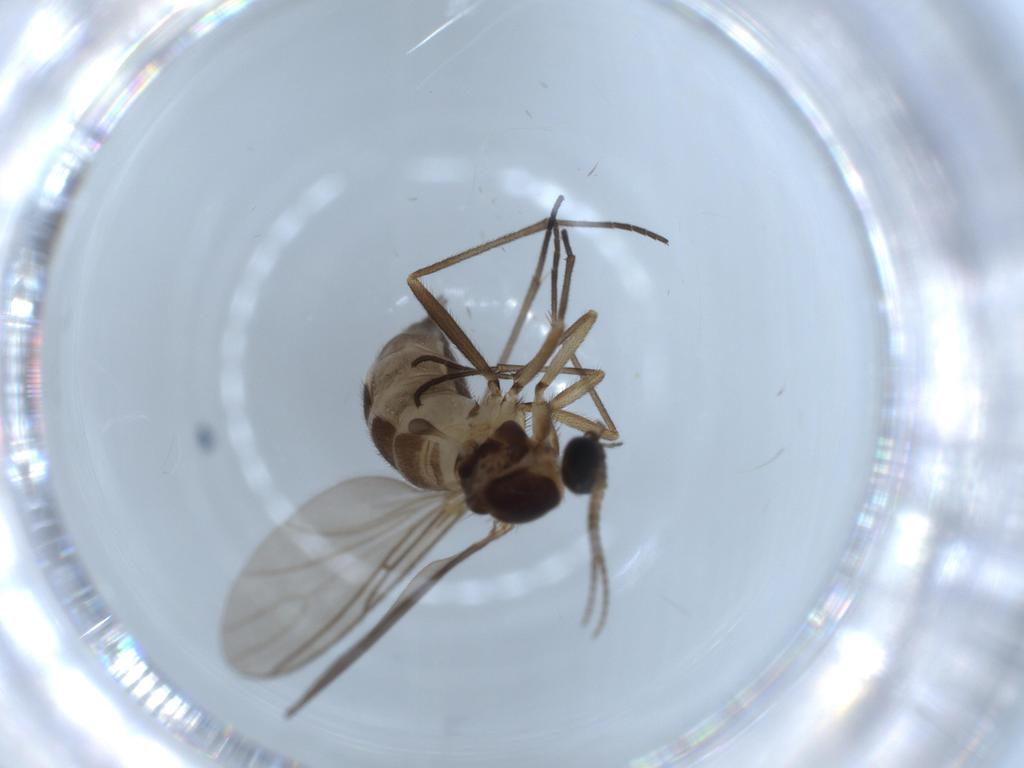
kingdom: Animalia
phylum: Arthropoda
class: Insecta
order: Diptera
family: Sciaridae
